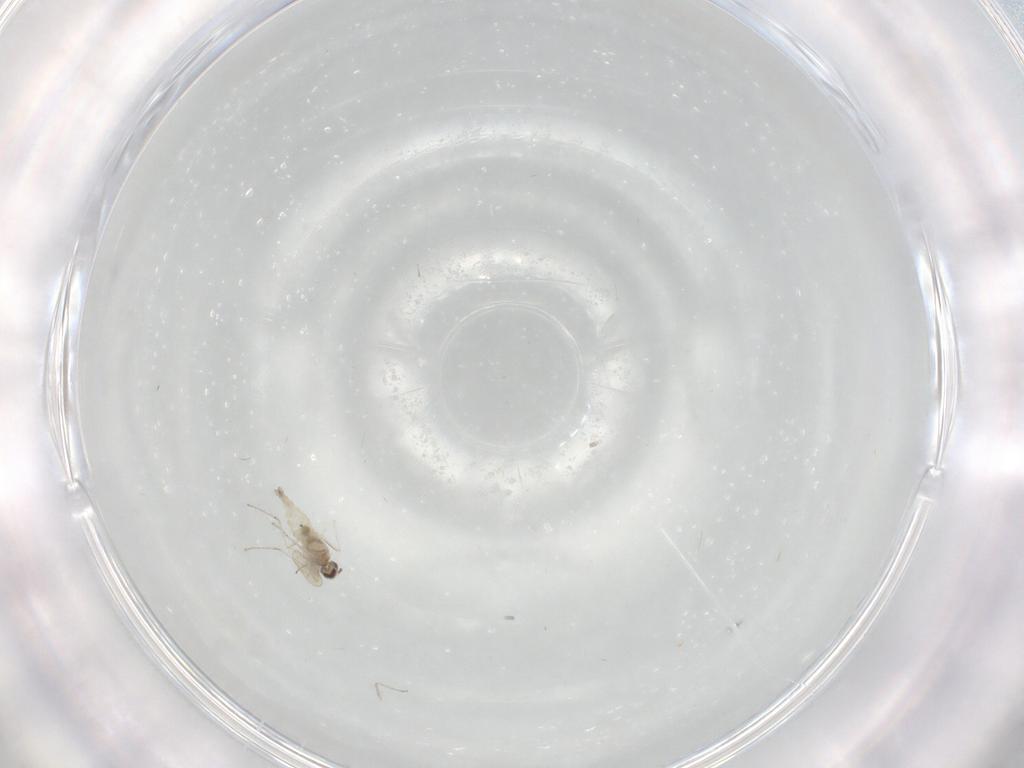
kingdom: Animalia
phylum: Arthropoda
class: Insecta
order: Diptera
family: Cecidomyiidae
